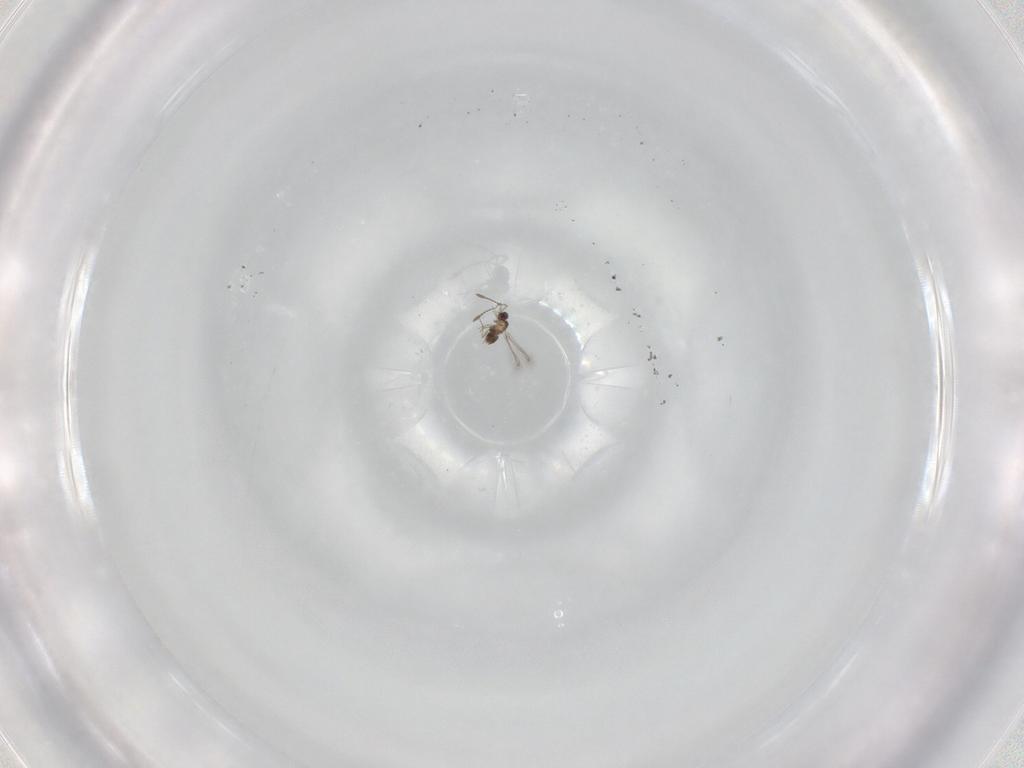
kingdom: Animalia
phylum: Arthropoda
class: Insecta
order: Hymenoptera
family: Mymaridae
